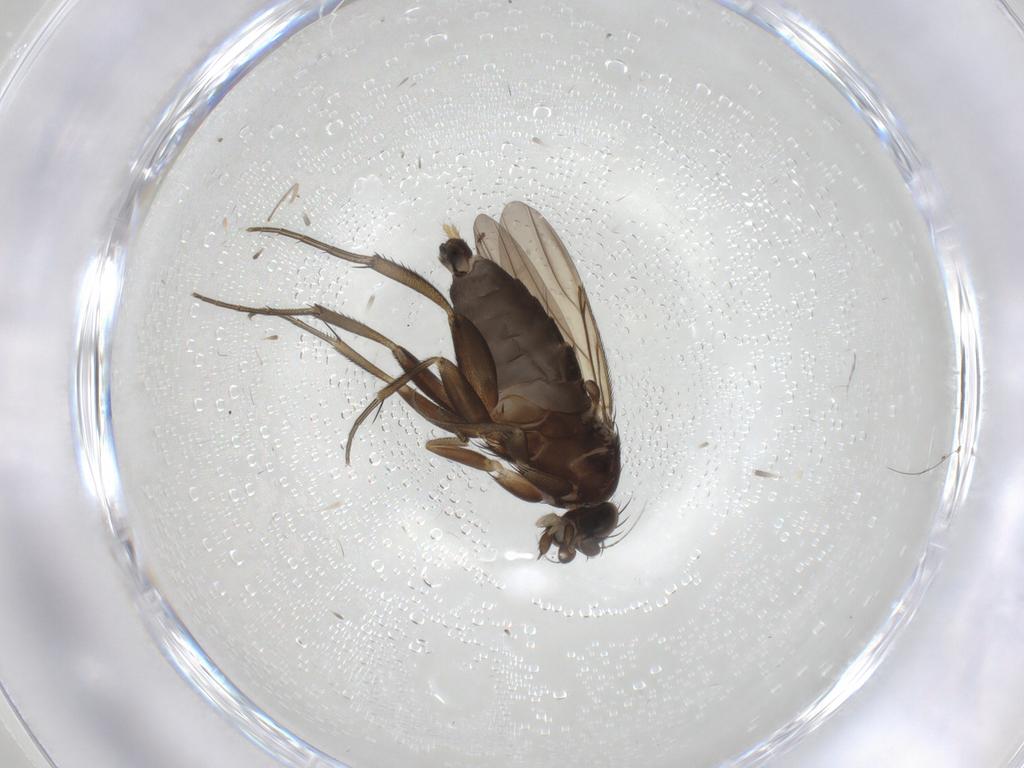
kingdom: Animalia
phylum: Arthropoda
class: Insecta
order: Diptera
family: Phoridae
